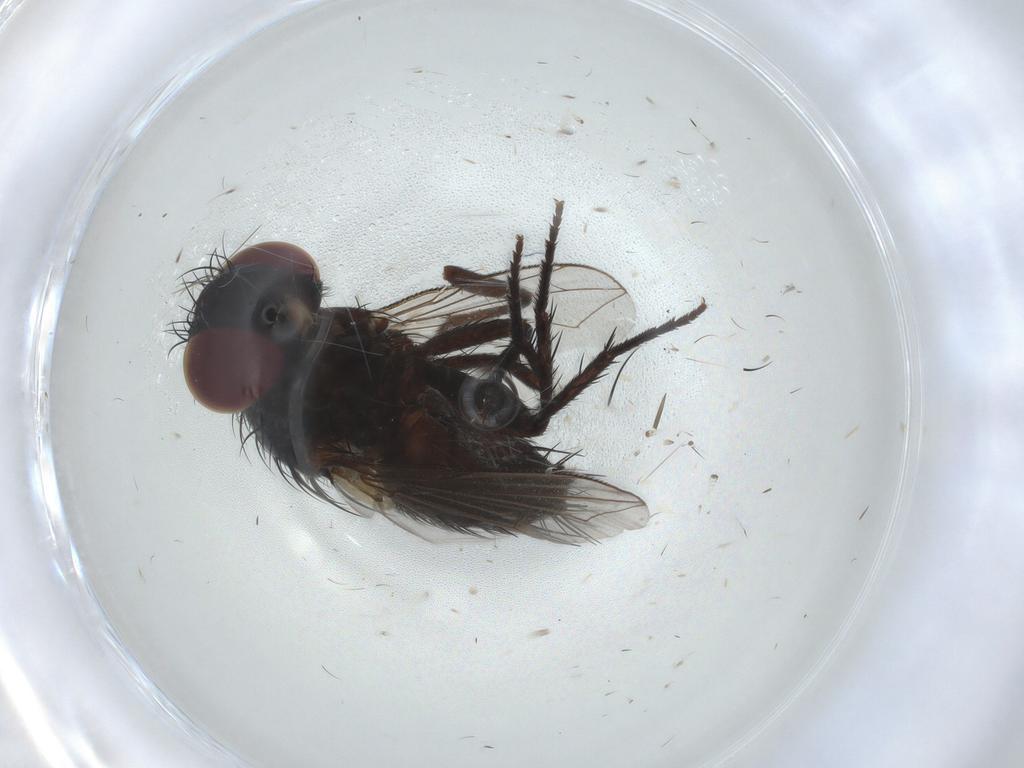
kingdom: Animalia
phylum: Arthropoda
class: Insecta
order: Diptera
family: Tachinidae
